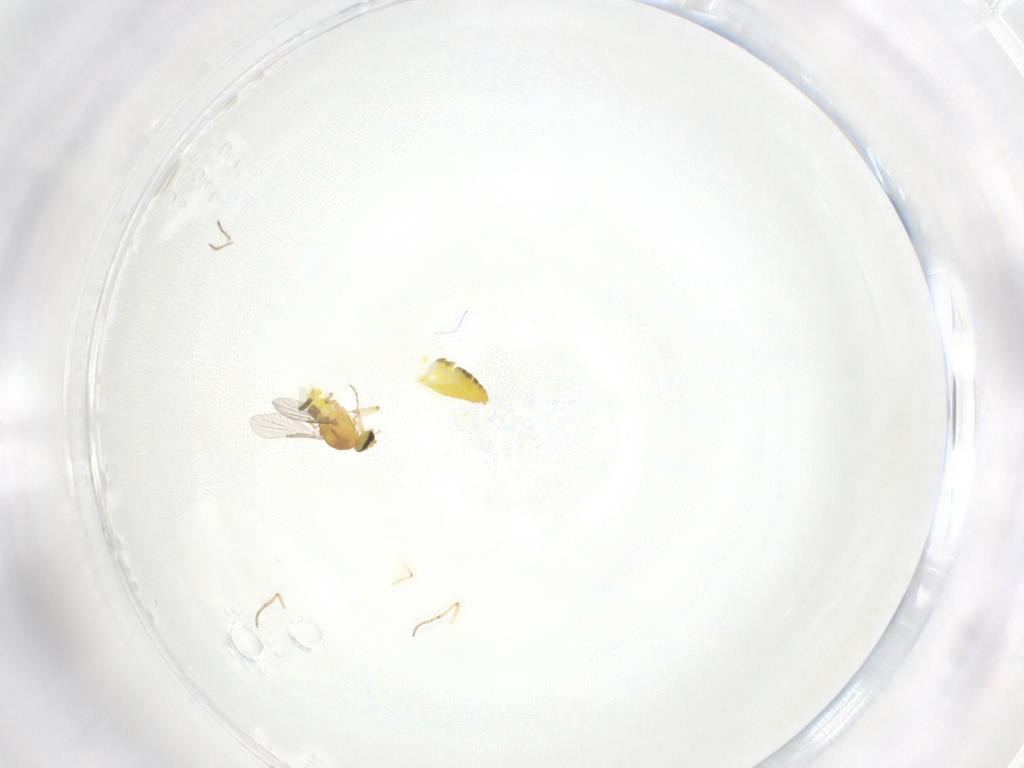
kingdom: Animalia
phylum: Arthropoda
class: Insecta
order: Diptera
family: Ceratopogonidae
